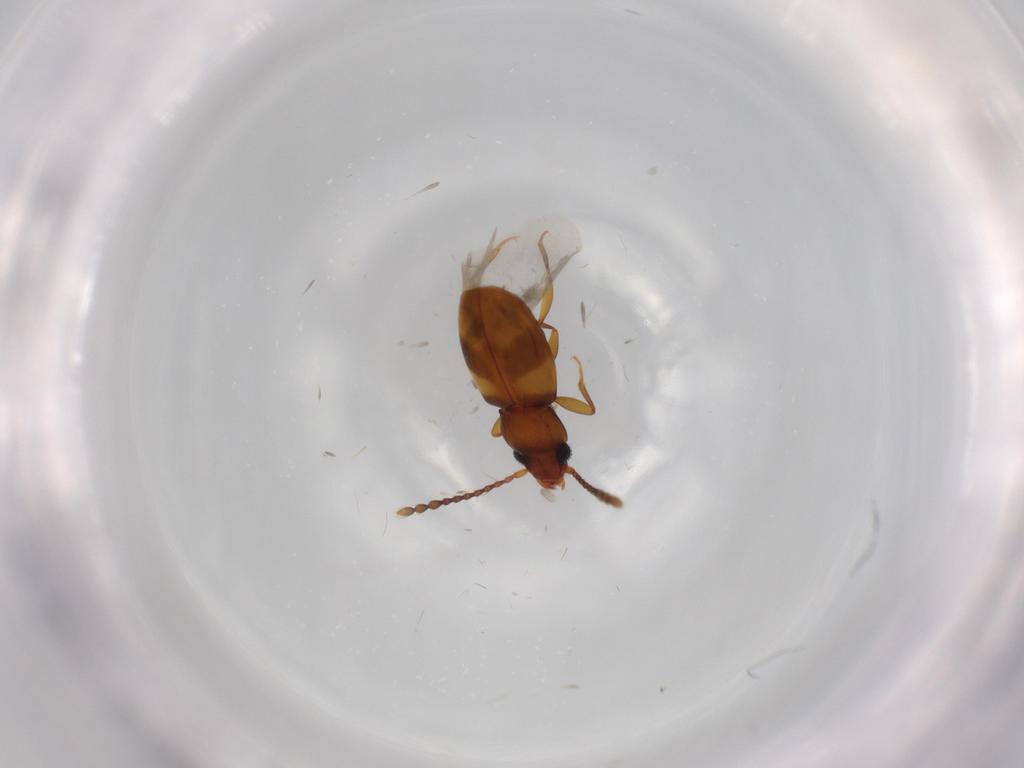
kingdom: Animalia
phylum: Arthropoda
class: Insecta
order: Coleoptera
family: Laemophloeidae
